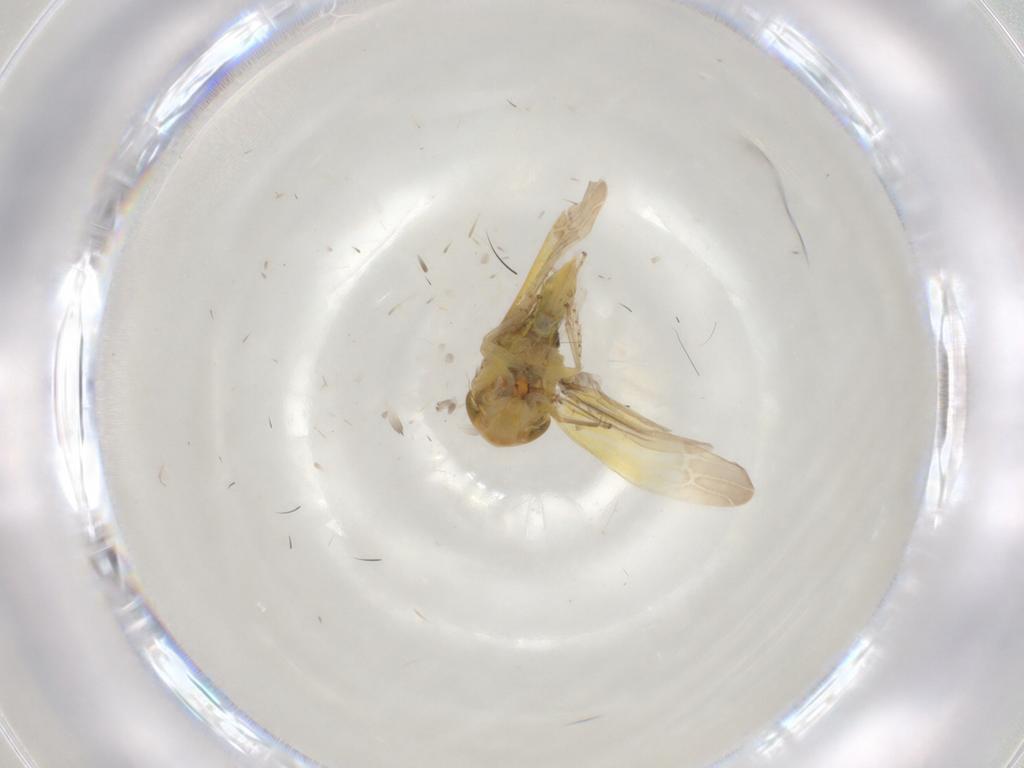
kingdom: Animalia
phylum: Arthropoda
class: Insecta
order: Hemiptera
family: Cicadellidae
